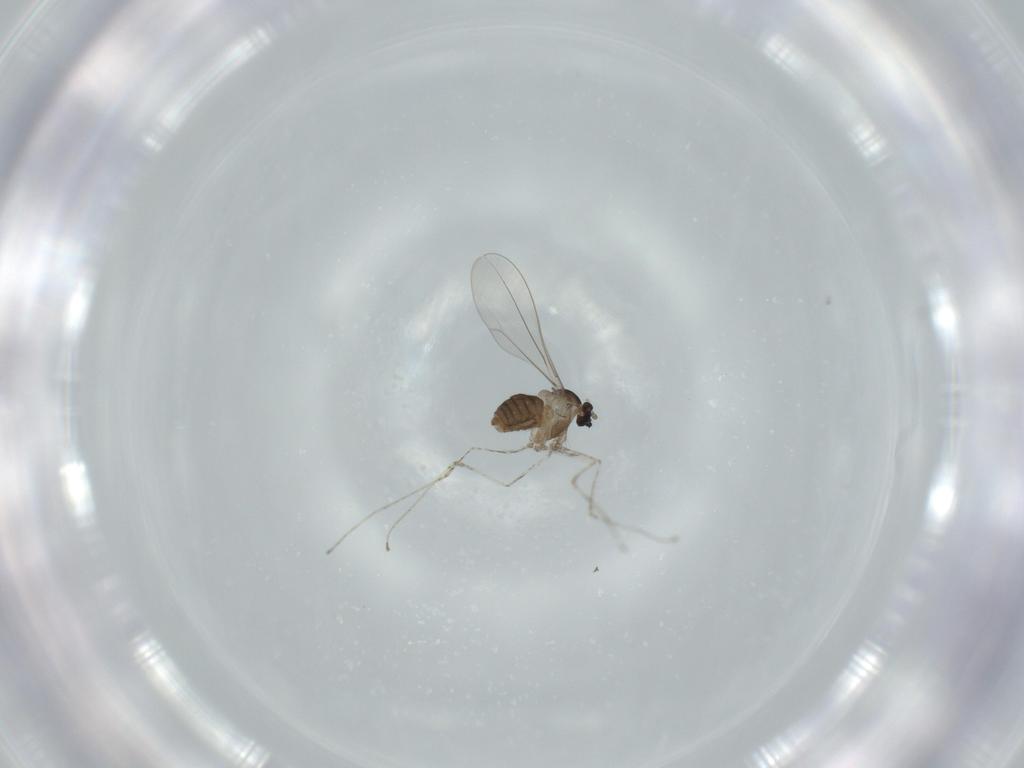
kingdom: Animalia
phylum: Arthropoda
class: Insecta
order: Diptera
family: Cecidomyiidae
